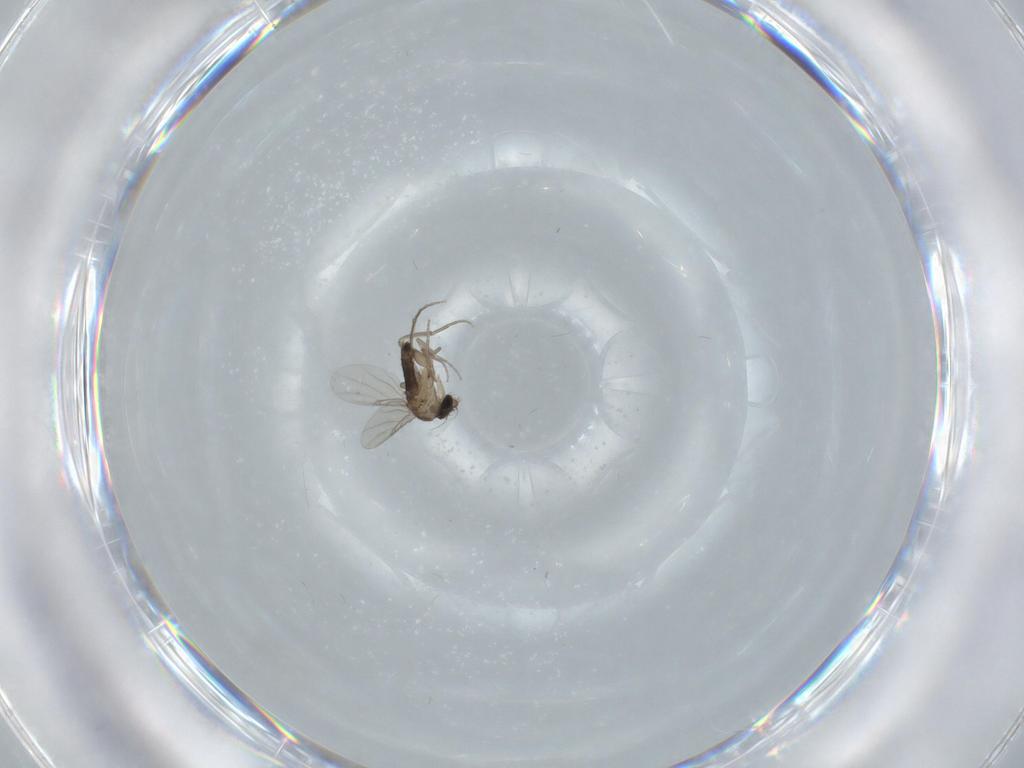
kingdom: Animalia
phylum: Arthropoda
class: Insecta
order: Diptera
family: Phoridae
